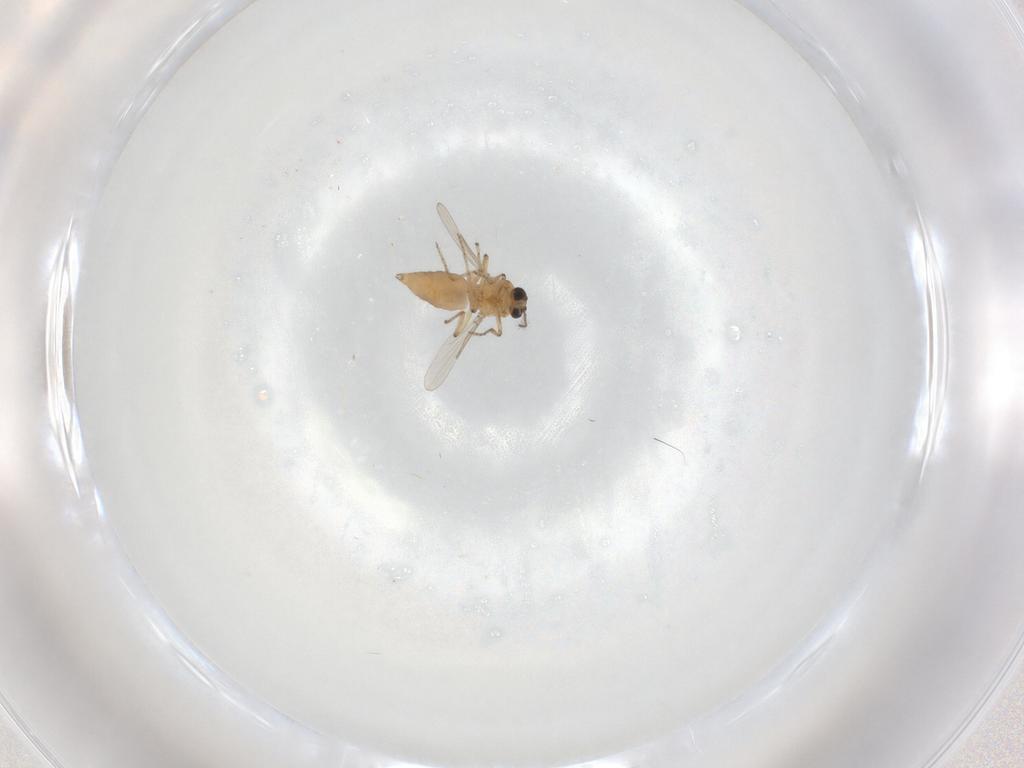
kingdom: Animalia
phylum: Arthropoda
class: Insecta
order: Diptera
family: Ceratopogonidae
